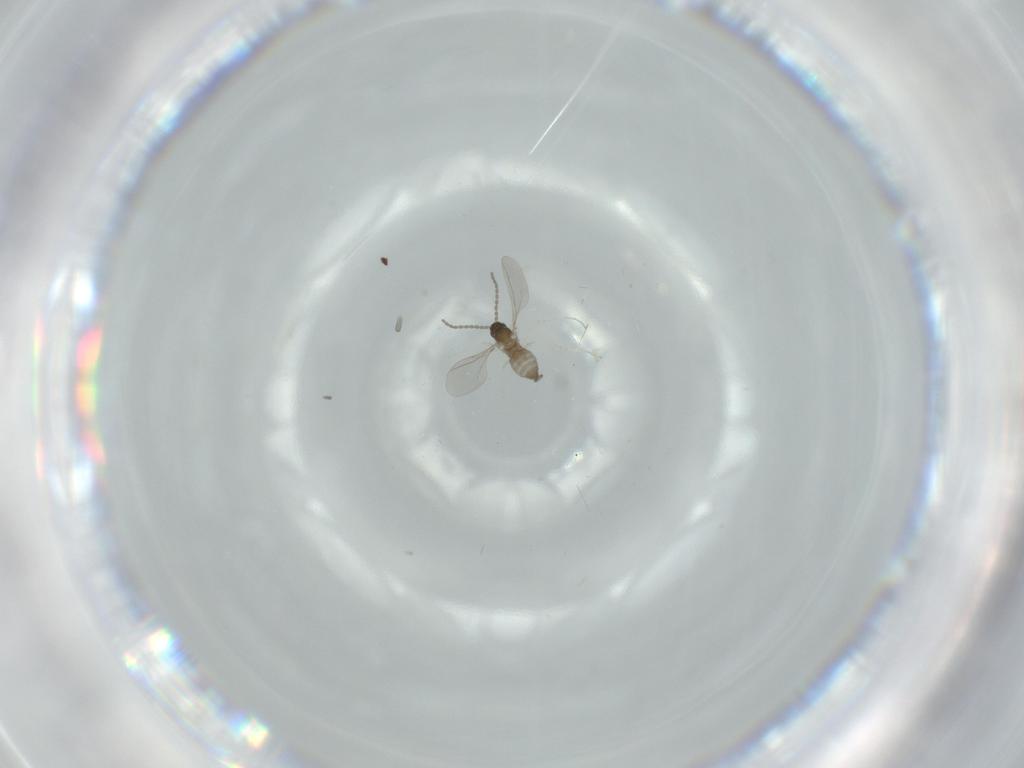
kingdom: Animalia
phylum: Arthropoda
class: Insecta
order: Diptera
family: Cecidomyiidae
